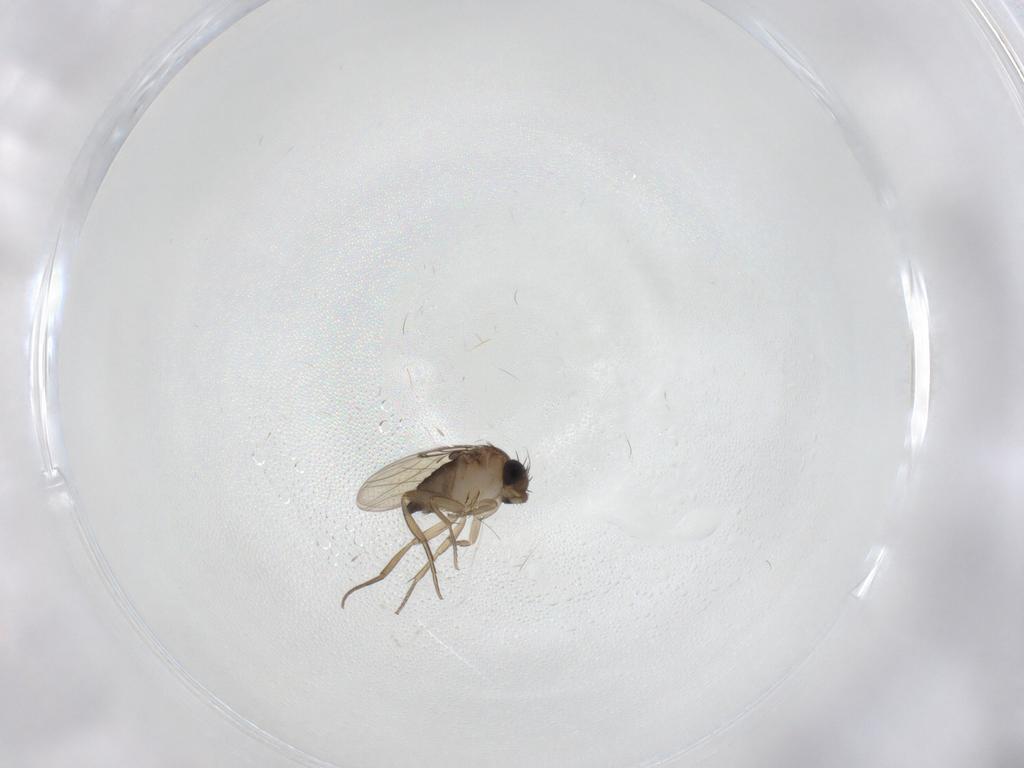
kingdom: Animalia
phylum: Arthropoda
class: Insecta
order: Diptera
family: Phoridae
